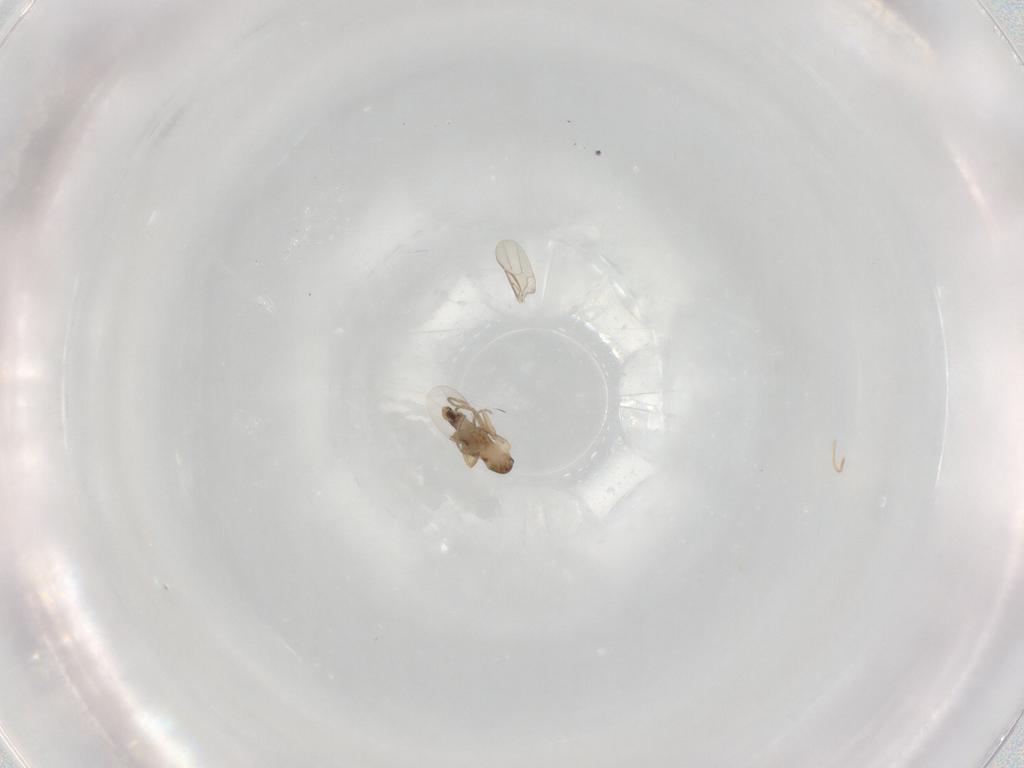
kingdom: Animalia
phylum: Arthropoda
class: Insecta
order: Diptera
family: Phoridae
